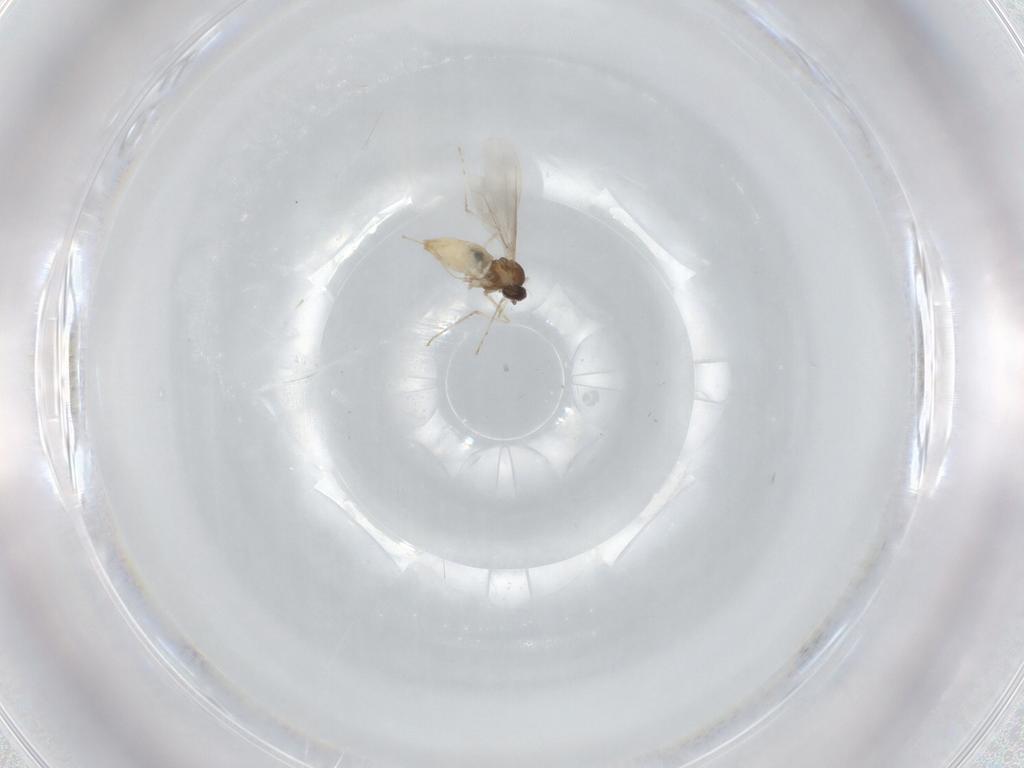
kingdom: Animalia
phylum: Arthropoda
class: Insecta
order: Diptera
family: Cecidomyiidae
